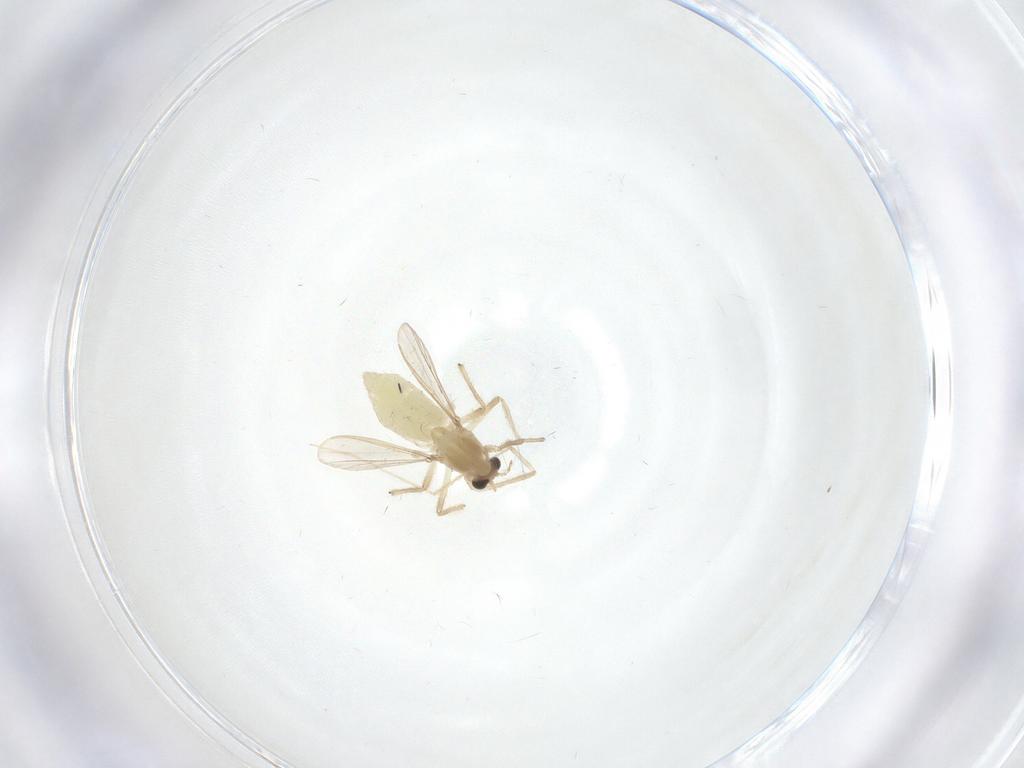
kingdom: Animalia
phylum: Arthropoda
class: Insecta
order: Diptera
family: Chironomidae
